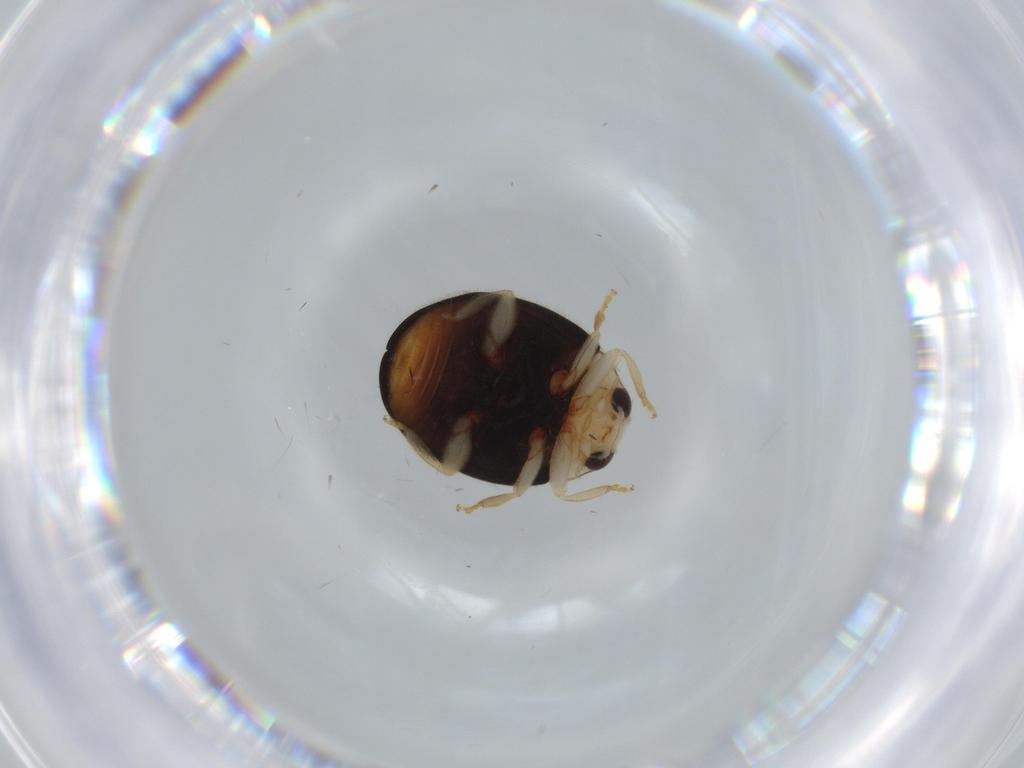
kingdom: Animalia
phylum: Arthropoda
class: Insecta
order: Coleoptera
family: Coccinellidae
